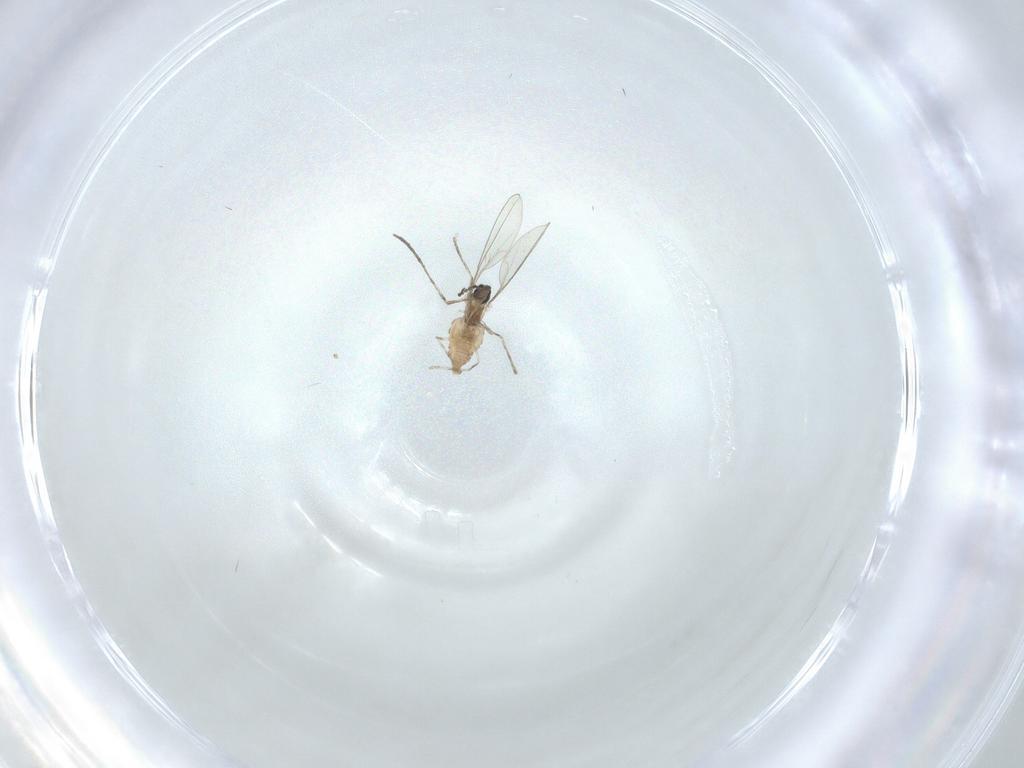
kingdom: Animalia
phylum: Arthropoda
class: Insecta
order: Diptera
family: Cecidomyiidae
